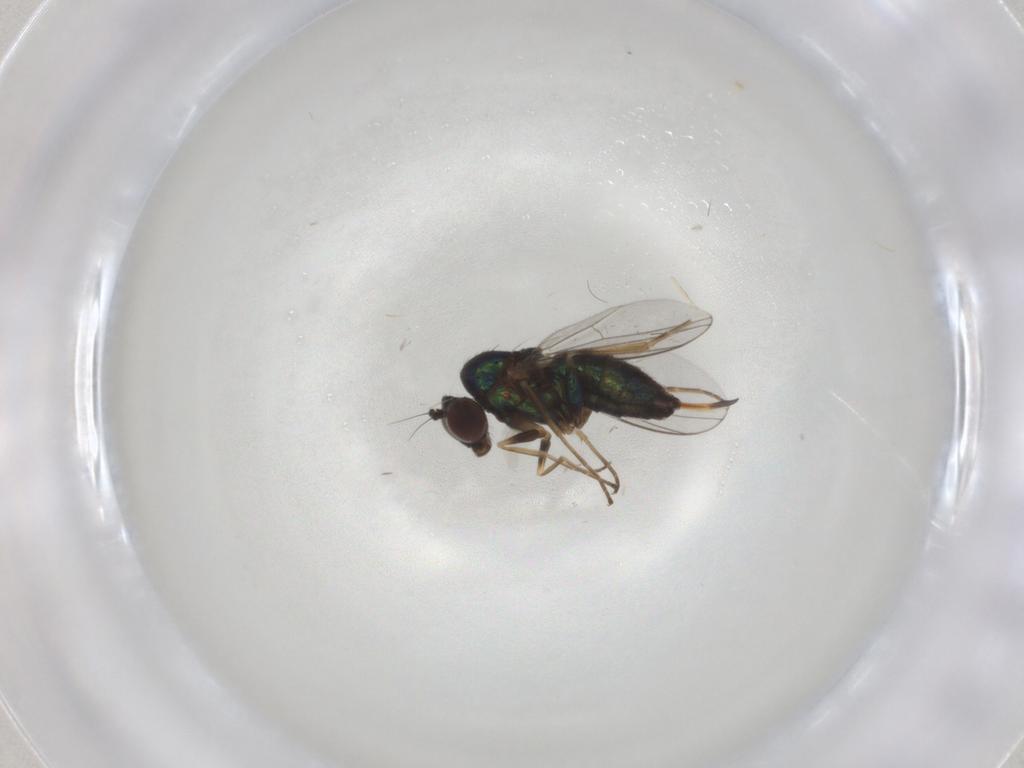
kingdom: Animalia
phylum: Arthropoda
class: Insecta
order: Diptera
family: Dolichopodidae
